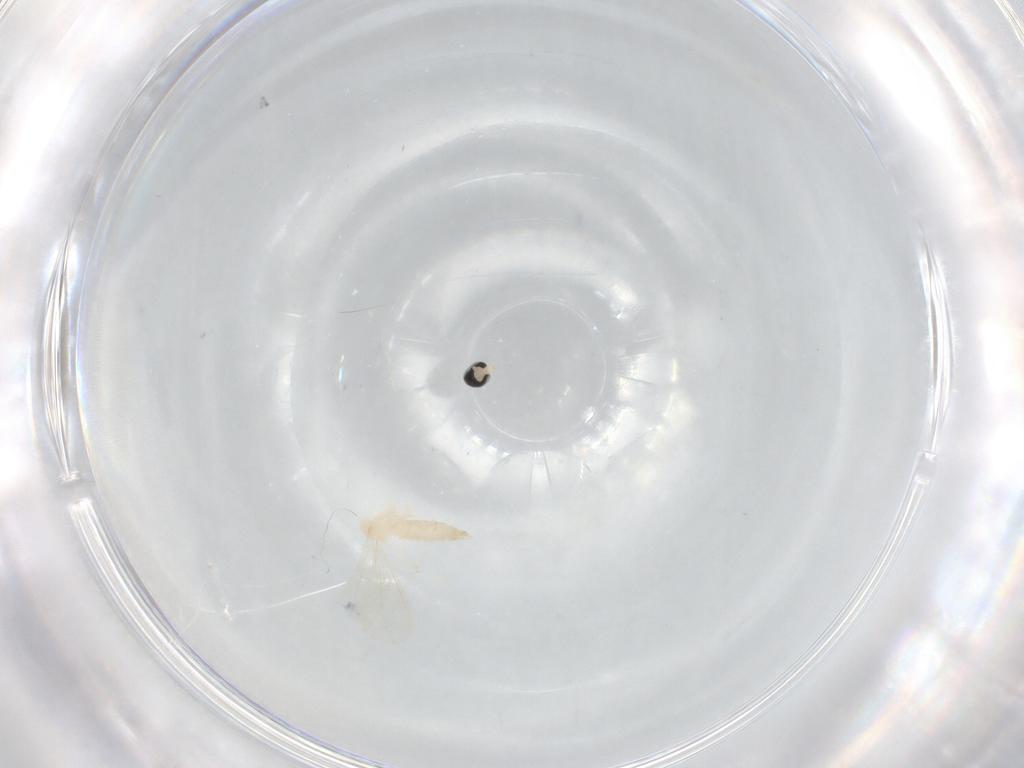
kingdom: Animalia
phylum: Arthropoda
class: Insecta
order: Diptera
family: Cecidomyiidae
